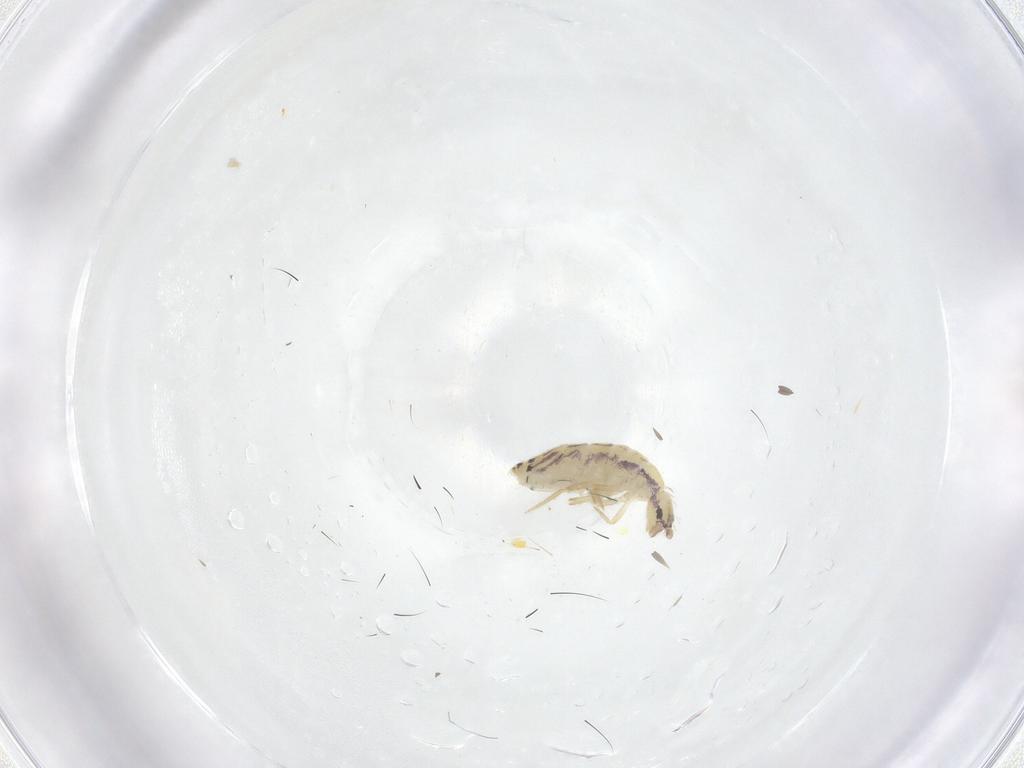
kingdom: Animalia
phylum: Arthropoda
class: Collembola
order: Entomobryomorpha
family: Entomobryidae
